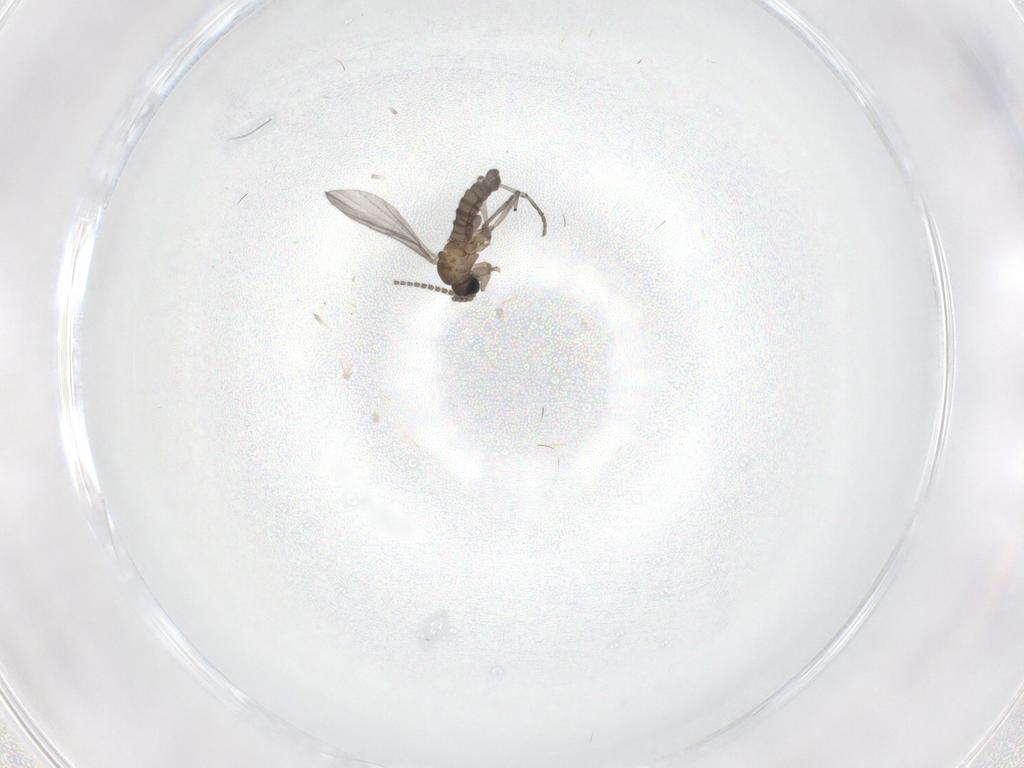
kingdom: Animalia
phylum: Arthropoda
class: Insecta
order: Diptera
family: Sciaridae
